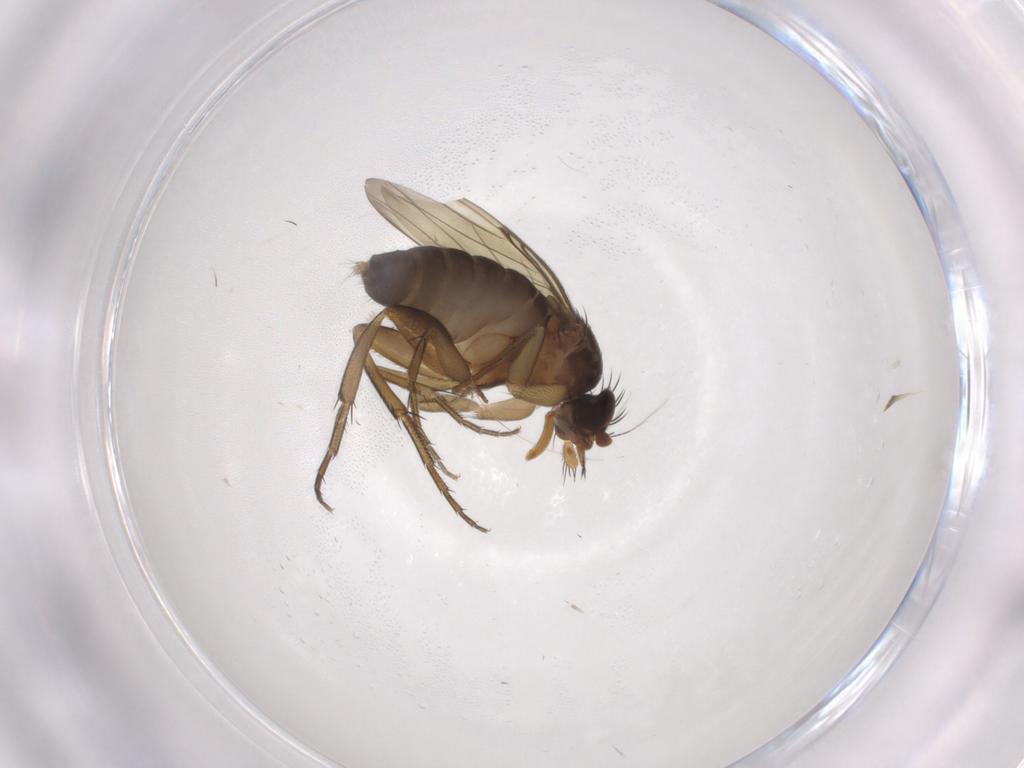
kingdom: Animalia
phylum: Arthropoda
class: Insecta
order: Diptera
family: Phoridae
